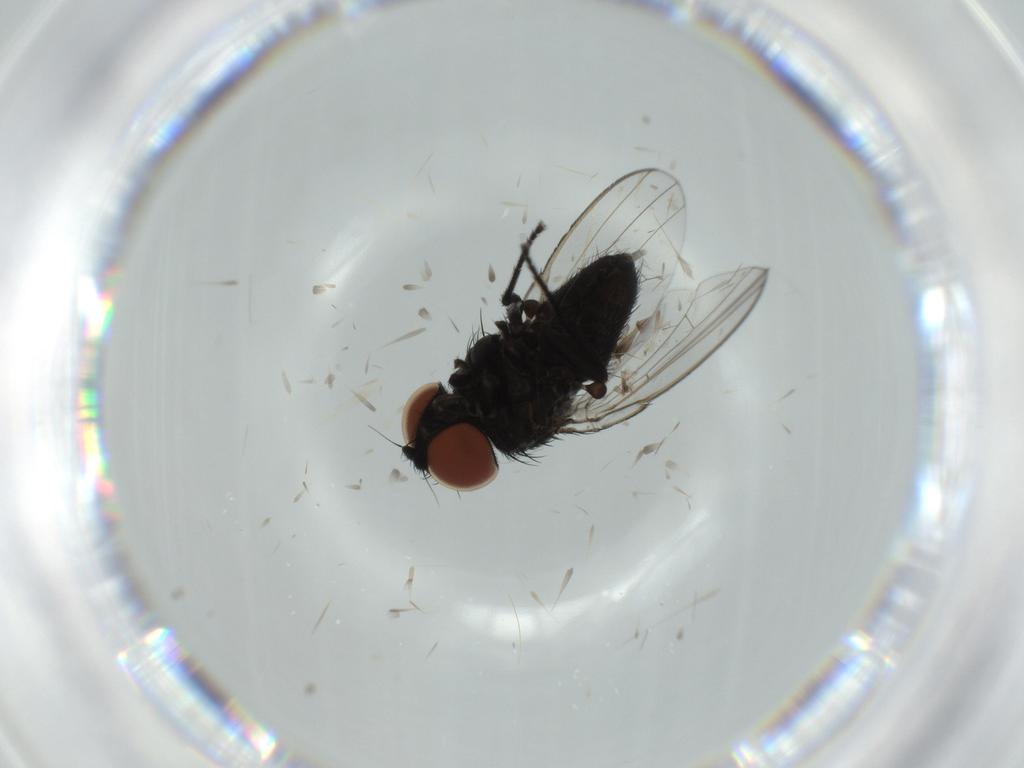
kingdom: Animalia
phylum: Arthropoda
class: Insecta
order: Diptera
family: Milichiidae
